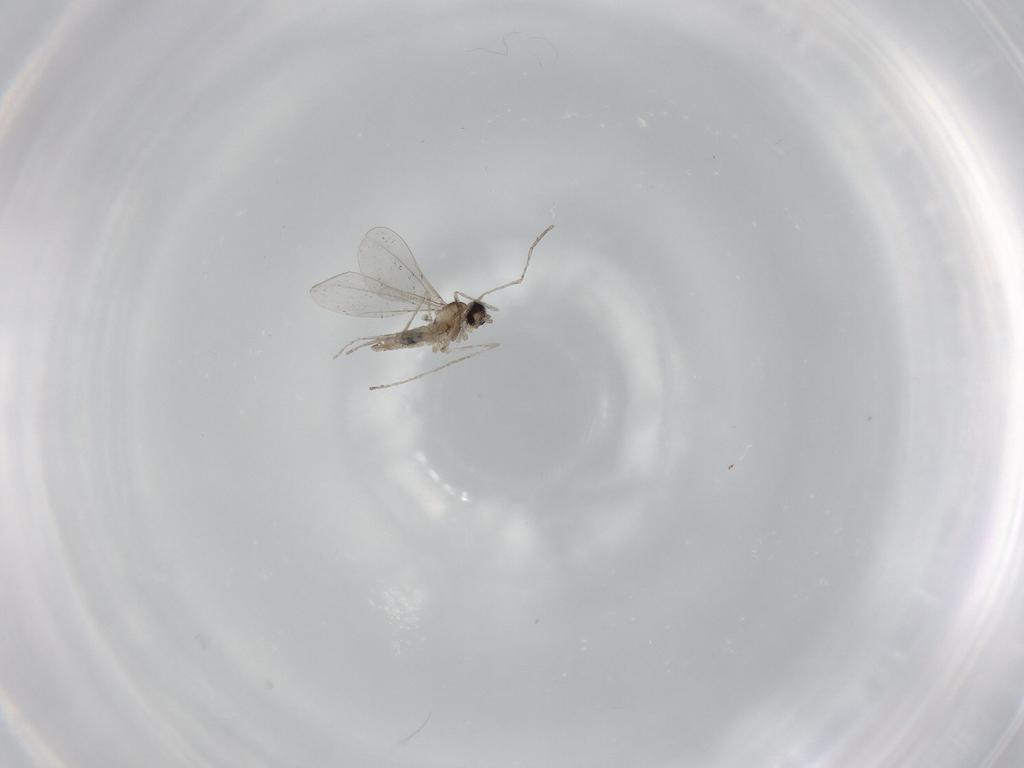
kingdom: Animalia
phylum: Arthropoda
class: Insecta
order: Diptera
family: Cecidomyiidae
